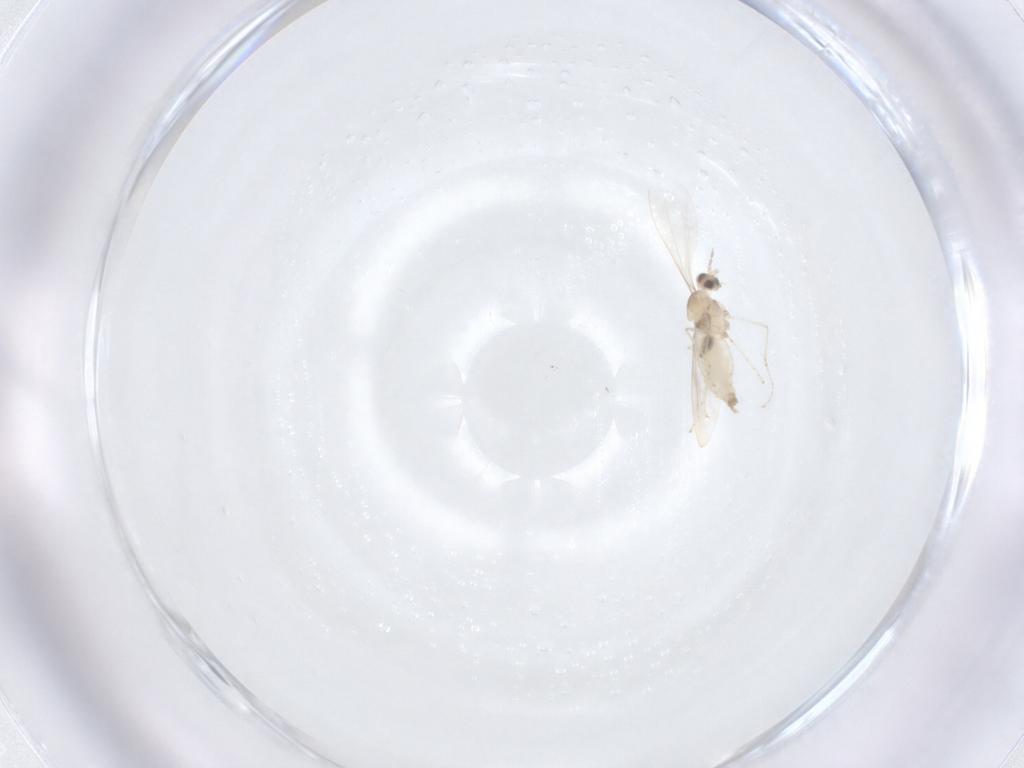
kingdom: Animalia
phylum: Arthropoda
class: Insecta
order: Diptera
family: Cecidomyiidae
